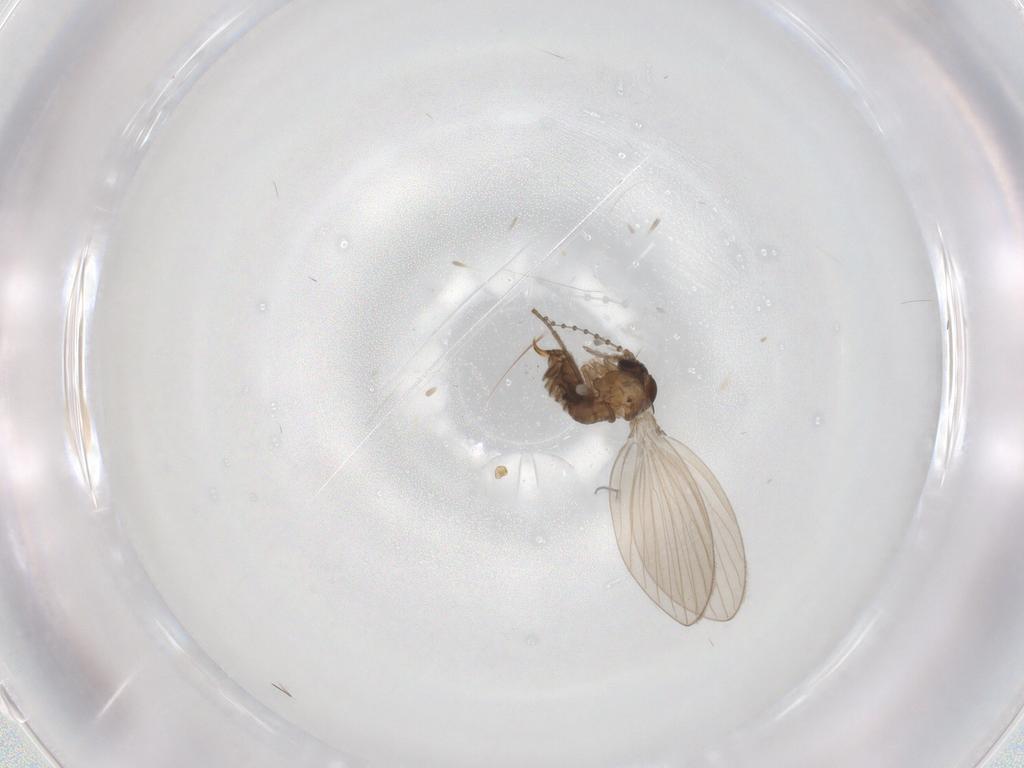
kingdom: Animalia
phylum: Arthropoda
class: Insecta
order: Diptera
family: Psychodidae
